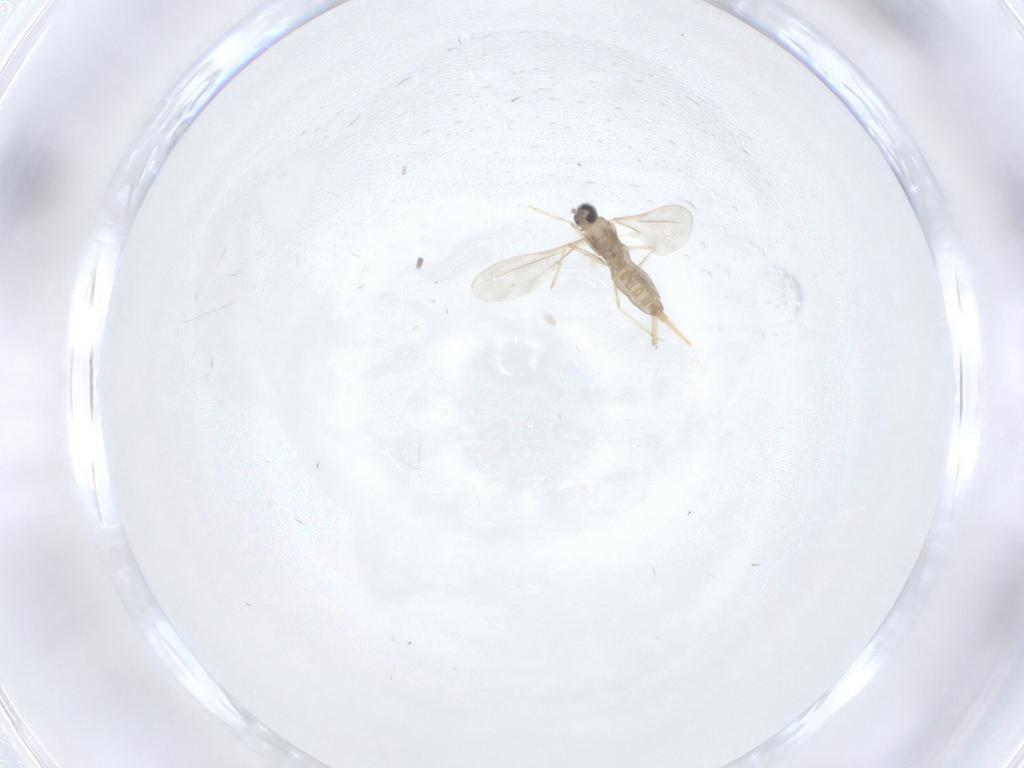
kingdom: Animalia
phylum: Arthropoda
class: Insecta
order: Diptera
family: Cecidomyiidae
